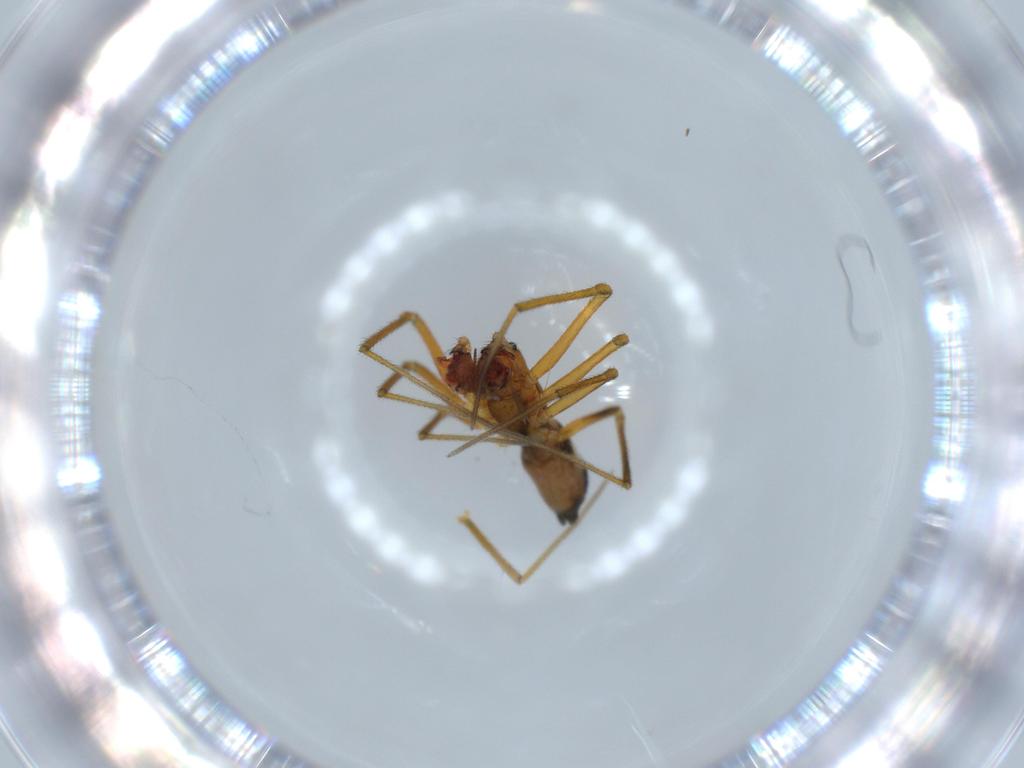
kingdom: Animalia
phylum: Arthropoda
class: Arachnida
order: Araneae
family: Linyphiidae
